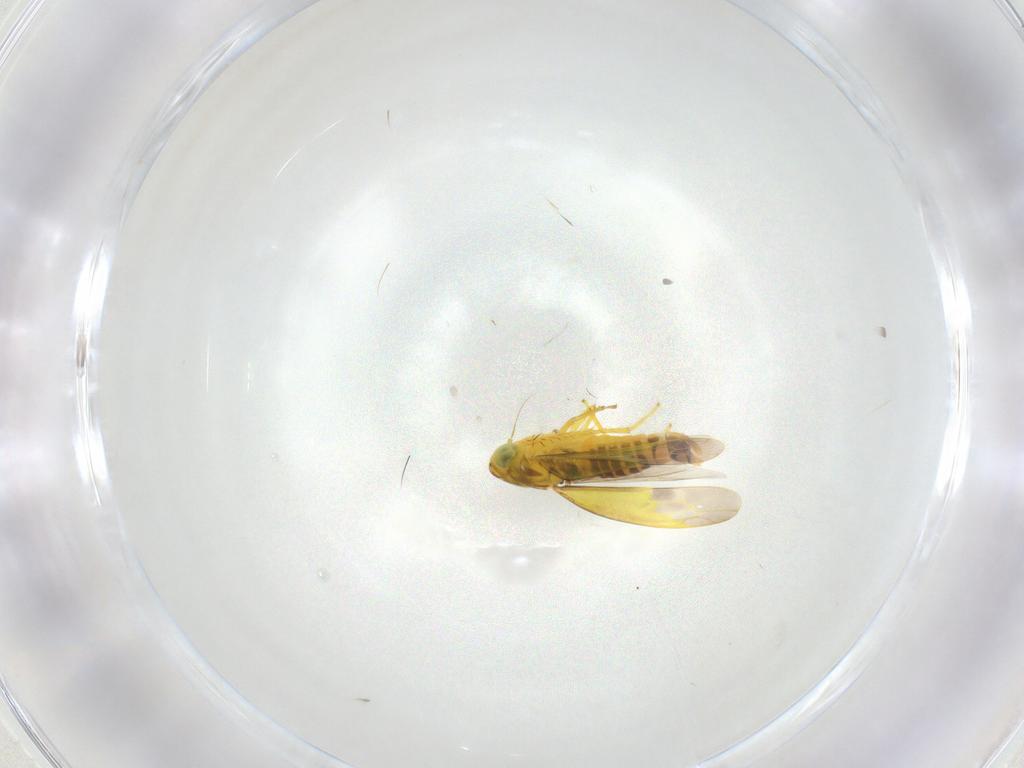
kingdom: Animalia
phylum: Arthropoda
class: Insecta
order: Hemiptera
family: Cicadellidae
